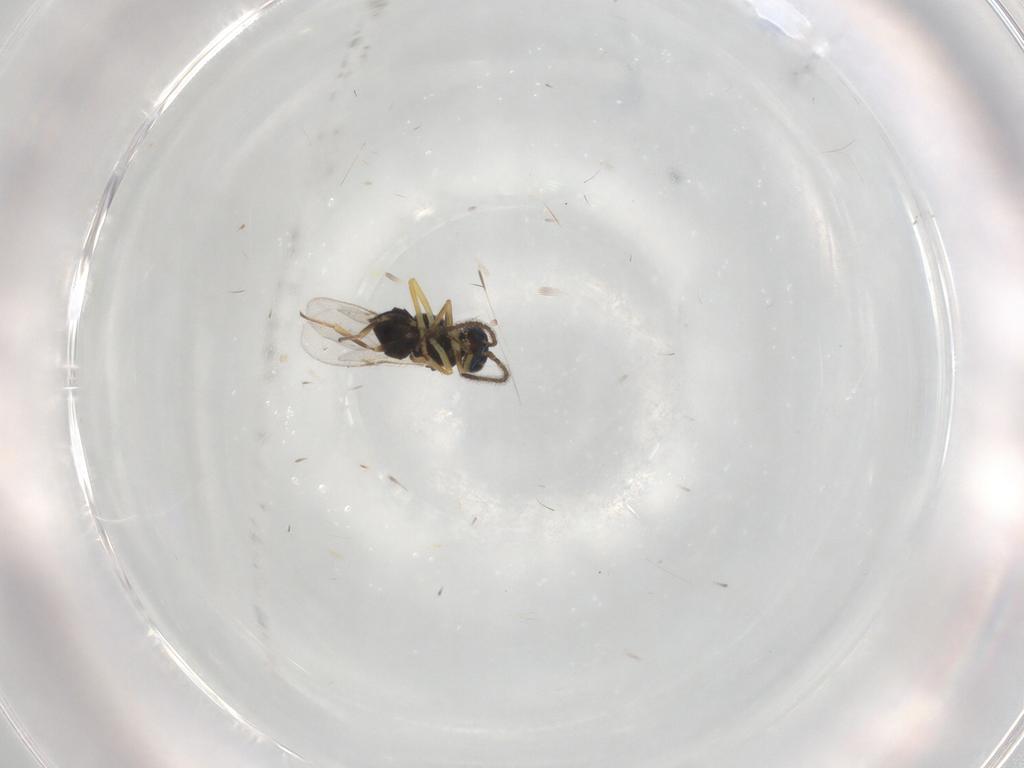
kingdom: Animalia
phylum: Arthropoda
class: Insecta
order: Hymenoptera
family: Encyrtidae
